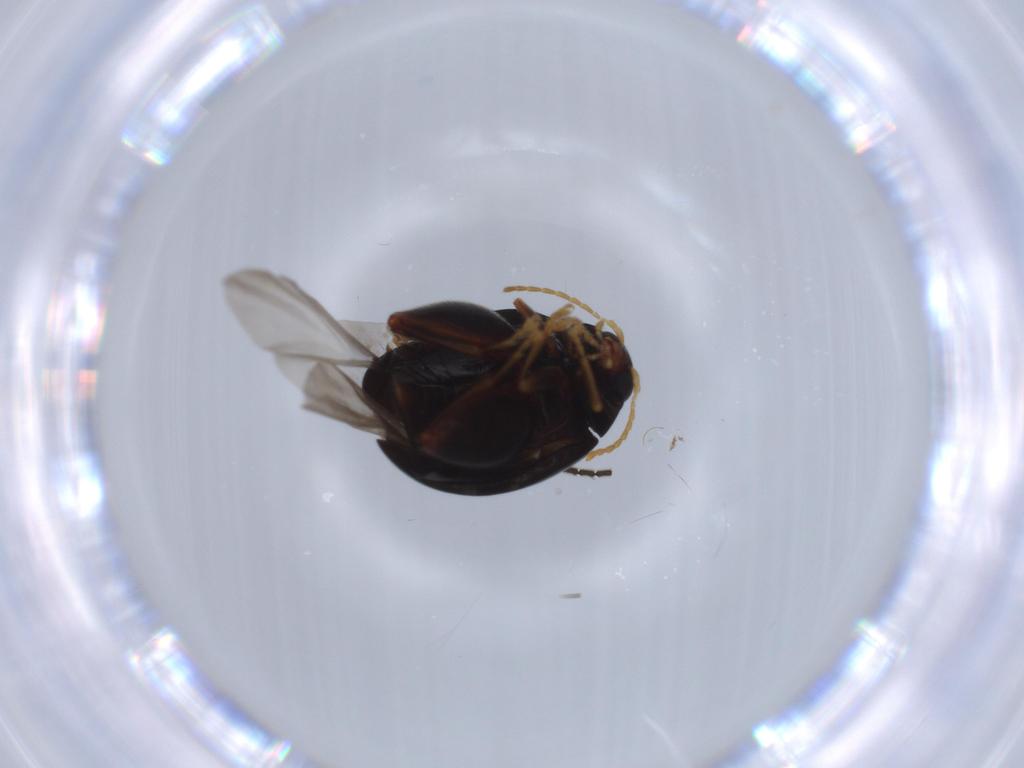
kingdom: Animalia
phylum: Arthropoda
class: Insecta
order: Coleoptera
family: Chrysomelidae
